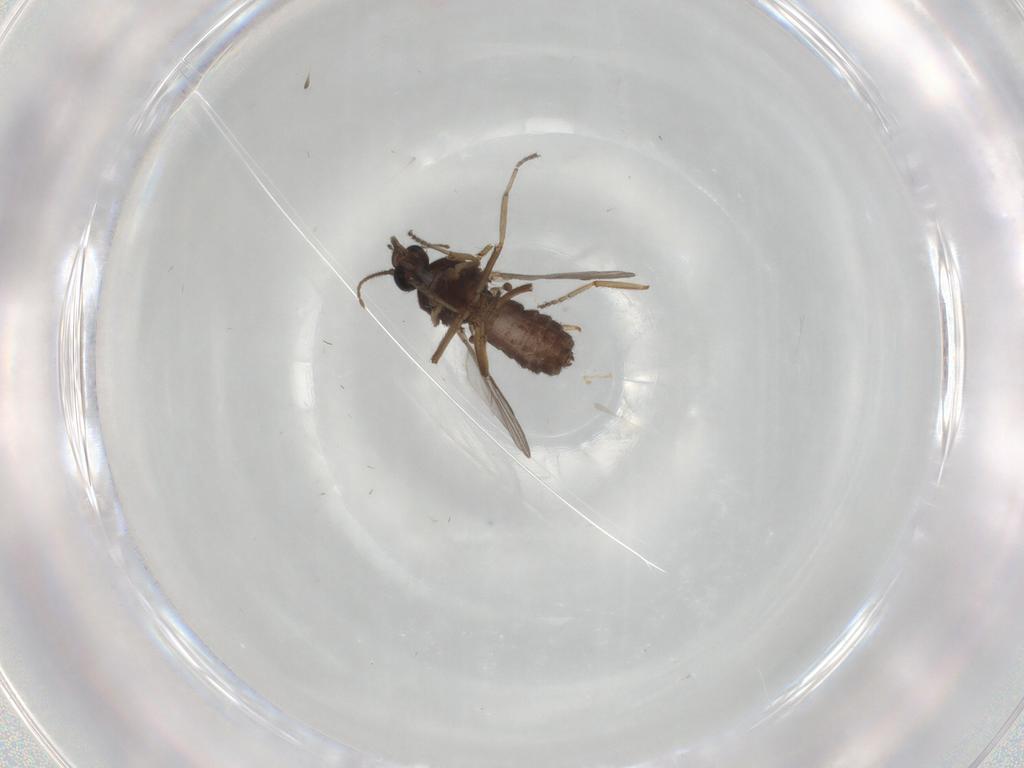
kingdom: Animalia
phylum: Arthropoda
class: Insecta
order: Diptera
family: Ceratopogonidae
